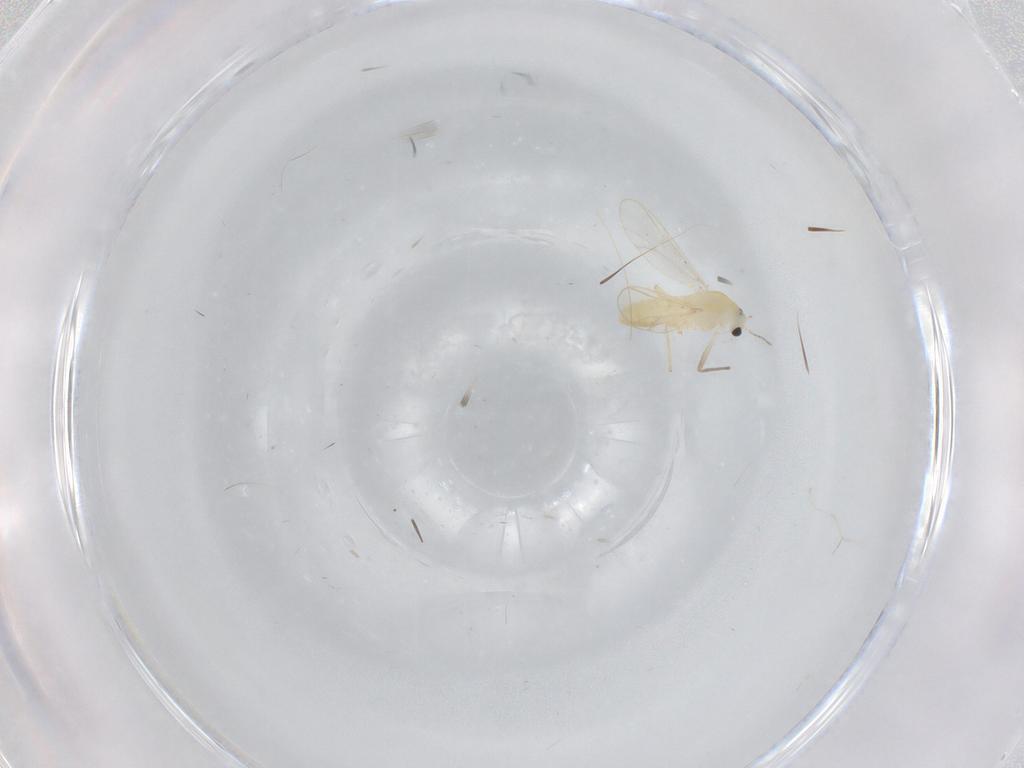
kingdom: Animalia
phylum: Arthropoda
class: Insecta
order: Diptera
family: Chironomidae
